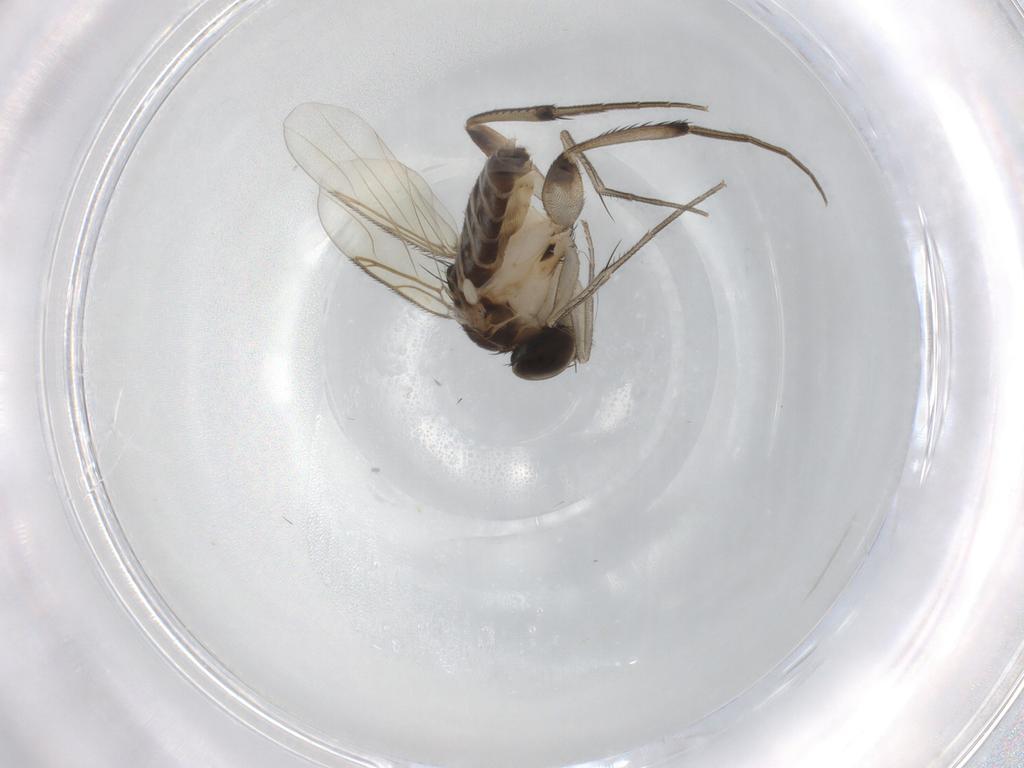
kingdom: Animalia
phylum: Arthropoda
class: Insecta
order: Diptera
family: Sciaridae
